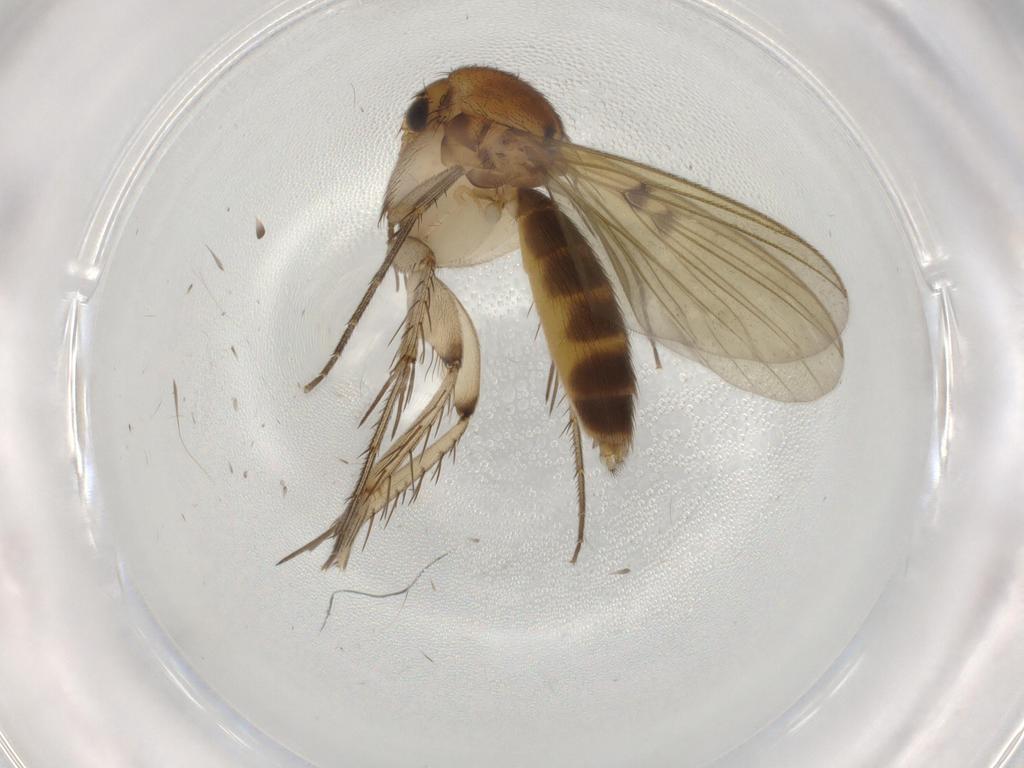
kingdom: Animalia
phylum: Arthropoda
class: Insecta
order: Diptera
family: Mycetophilidae
